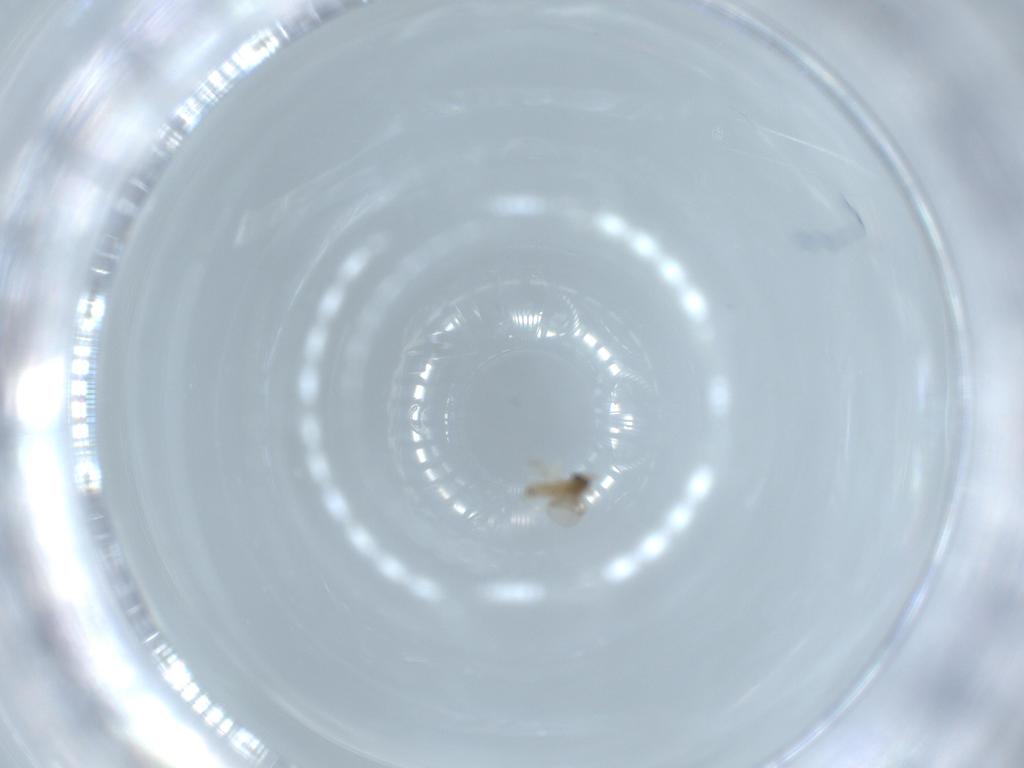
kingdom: Animalia
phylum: Arthropoda
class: Insecta
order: Diptera
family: Cecidomyiidae
